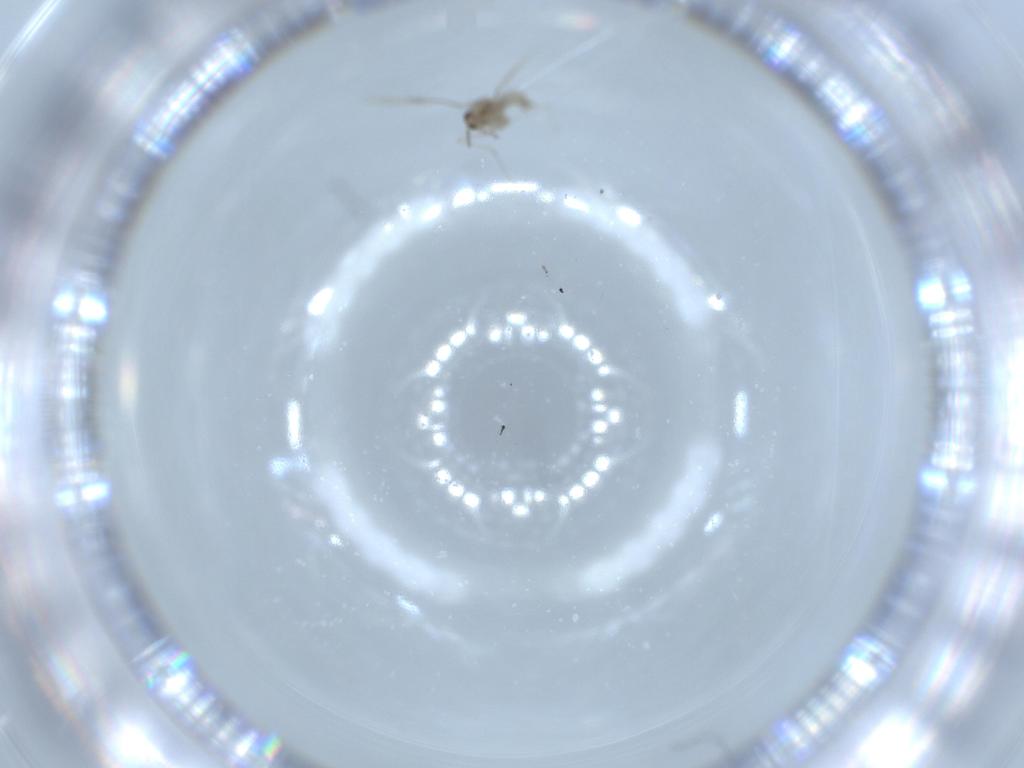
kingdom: Animalia
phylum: Arthropoda
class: Insecta
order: Diptera
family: Cecidomyiidae
